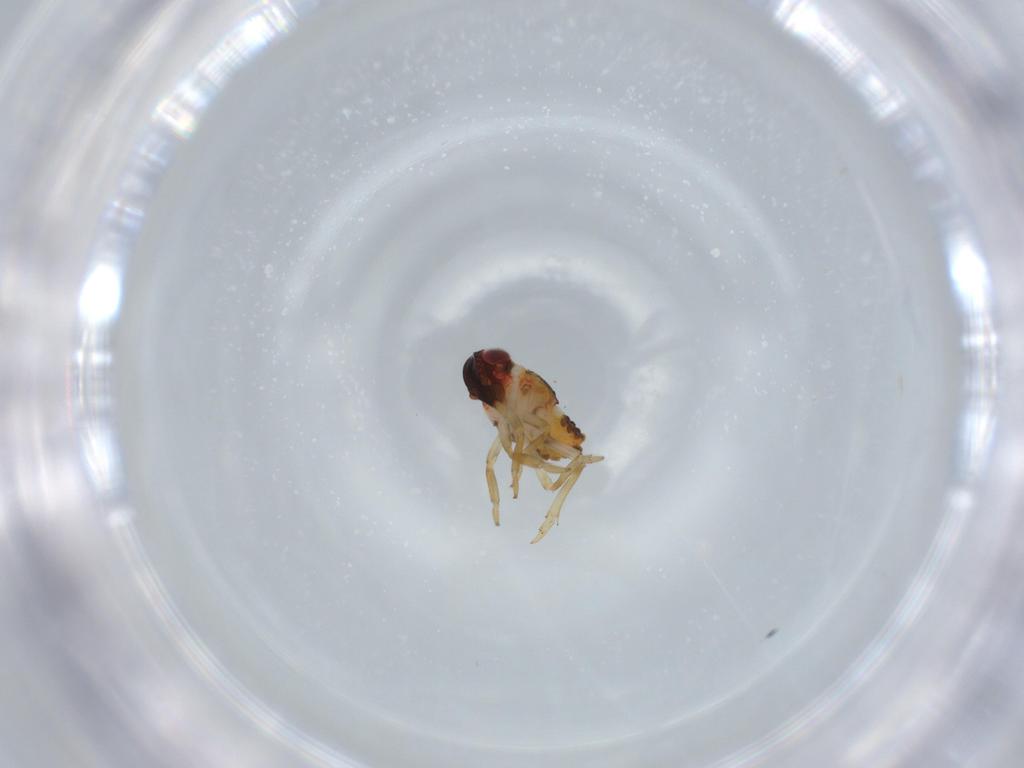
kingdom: Animalia
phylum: Arthropoda
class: Insecta
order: Hemiptera
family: Issidae
